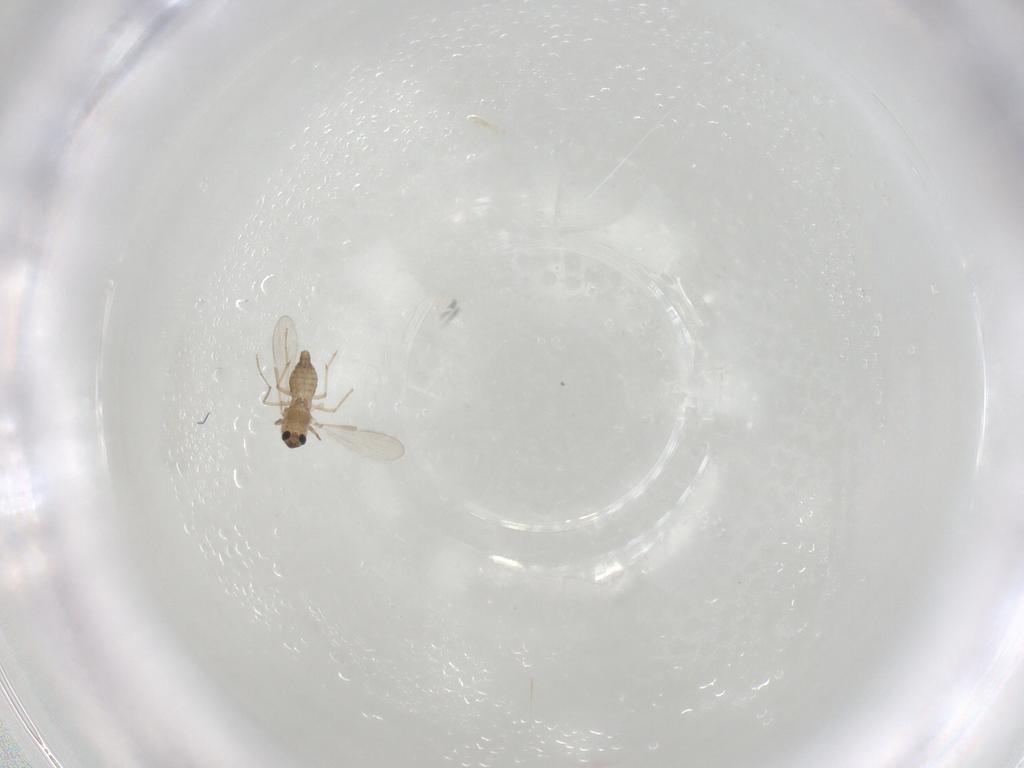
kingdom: Animalia
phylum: Arthropoda
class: Insecta
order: Diptera
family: Chironomidae
